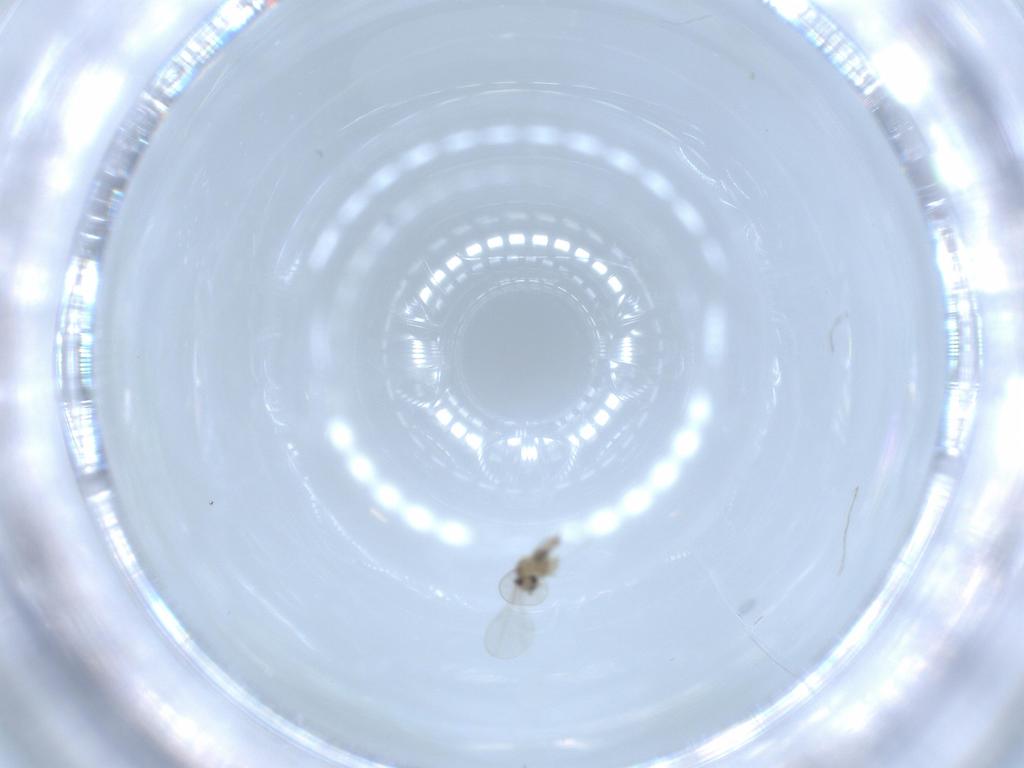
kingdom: Animalia
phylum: Arthropoda
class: Insecta
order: Diptera
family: Cecidomyiidae
